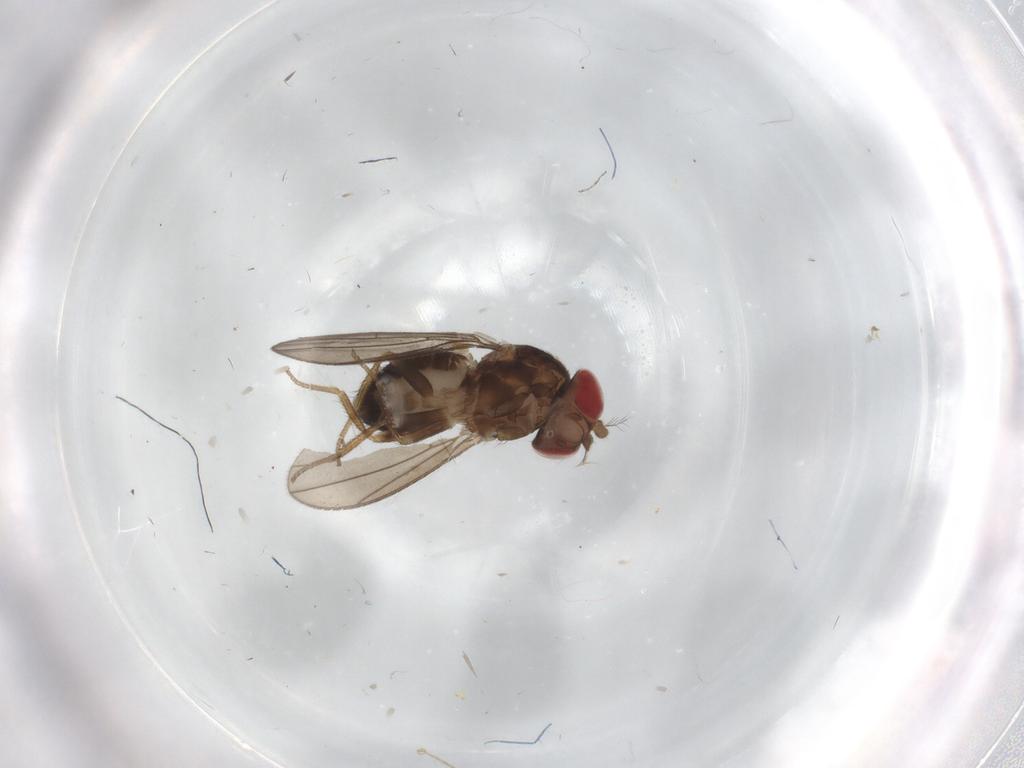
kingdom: Animalia
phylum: Arthropoda
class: Insecta
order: Diptera
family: Drosophilidae
